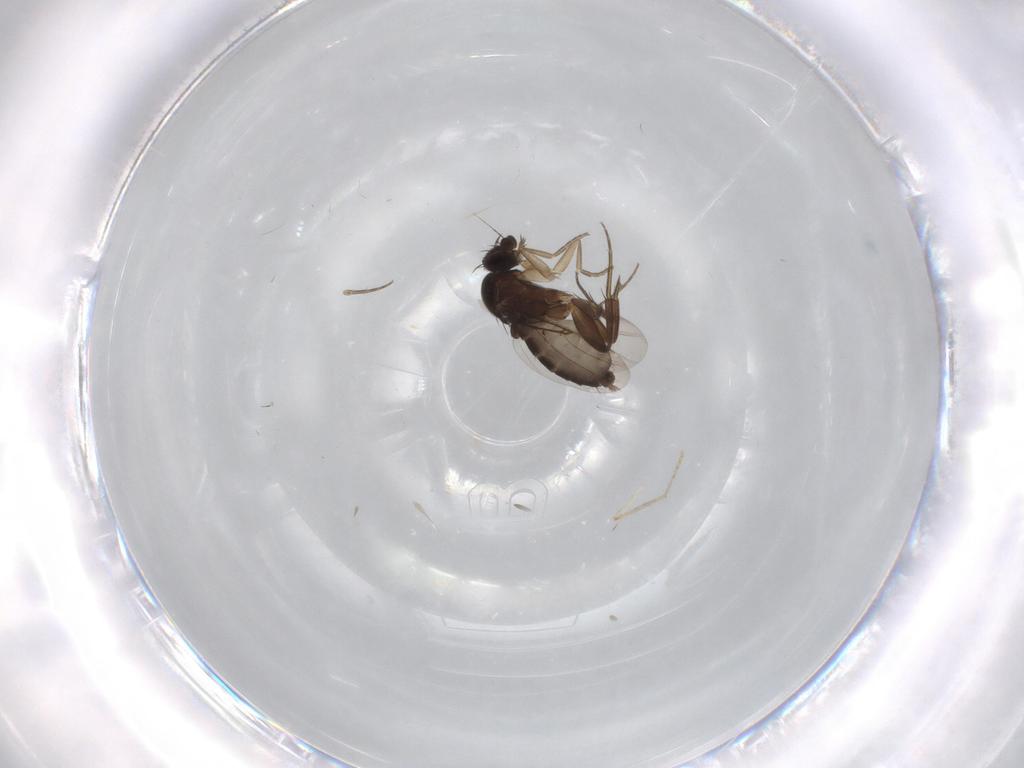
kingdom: Animalia
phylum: Arthropoda
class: Insecta
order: Diptera
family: Phoridae
